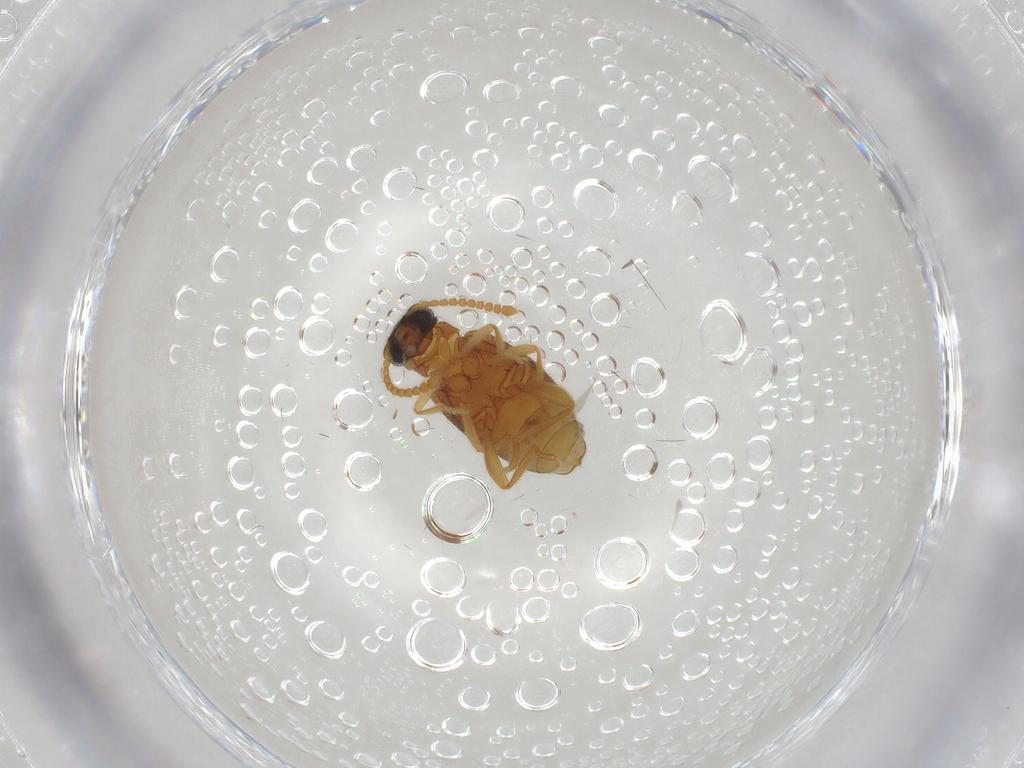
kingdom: Animalia
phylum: Arthropoda
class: Insecta
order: Coleoptera
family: Aderidae
